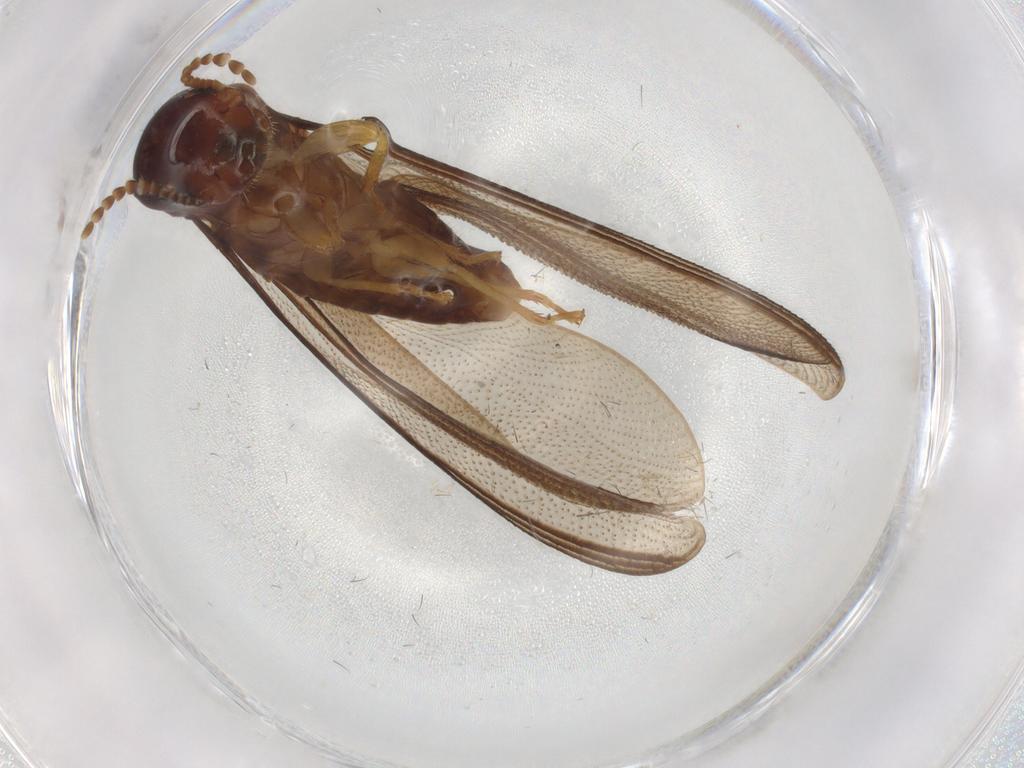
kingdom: Animalia
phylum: Arthropoda
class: Insecta
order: Blattodea
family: Kalotermitidae
